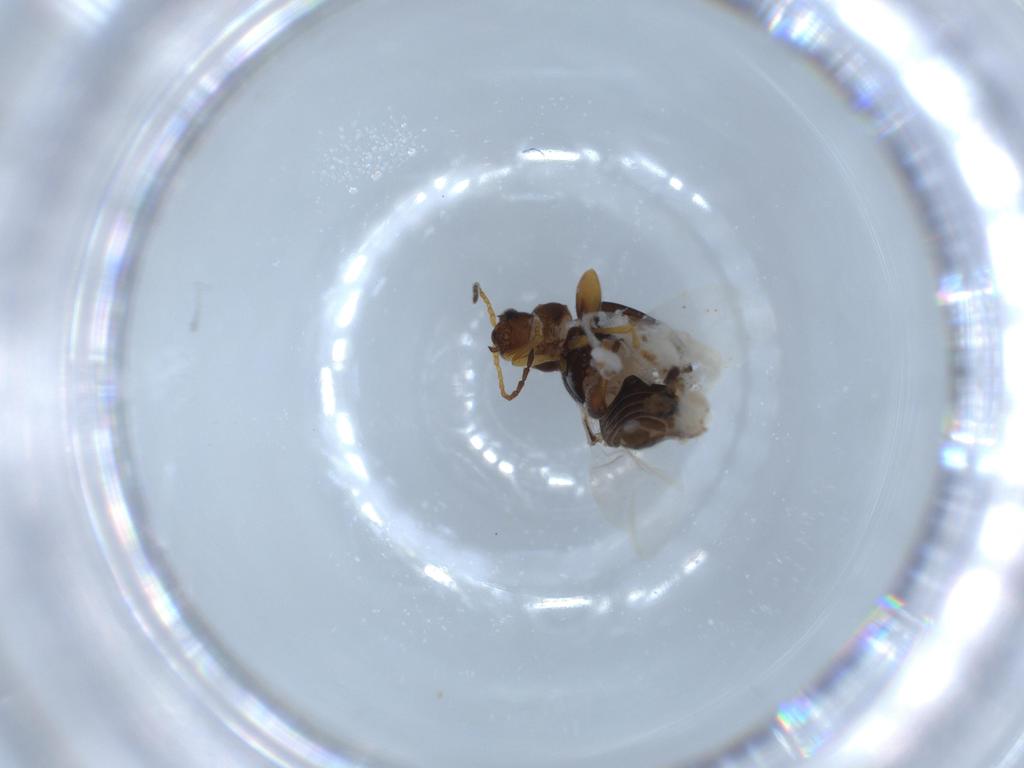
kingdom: Animalia
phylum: Arthropoda
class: Insecta
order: Coleoptera
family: Chrysomelidae
